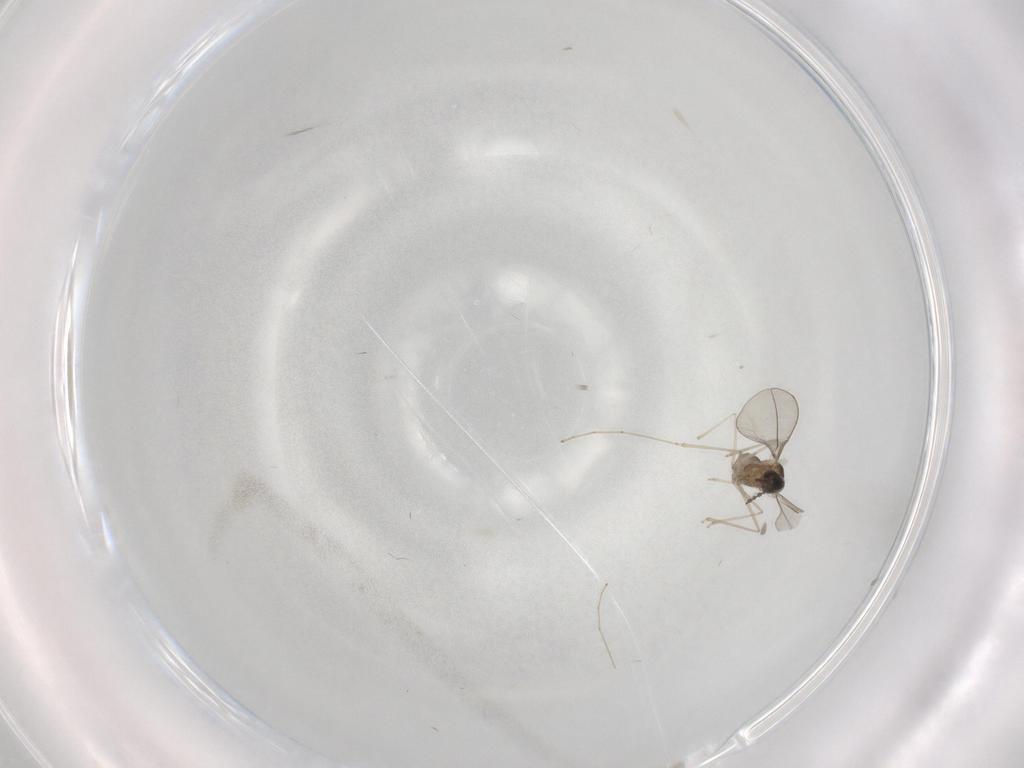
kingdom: Animalia
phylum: Arthropoda
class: Insecta
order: Diptera
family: Cecidomyiidae
